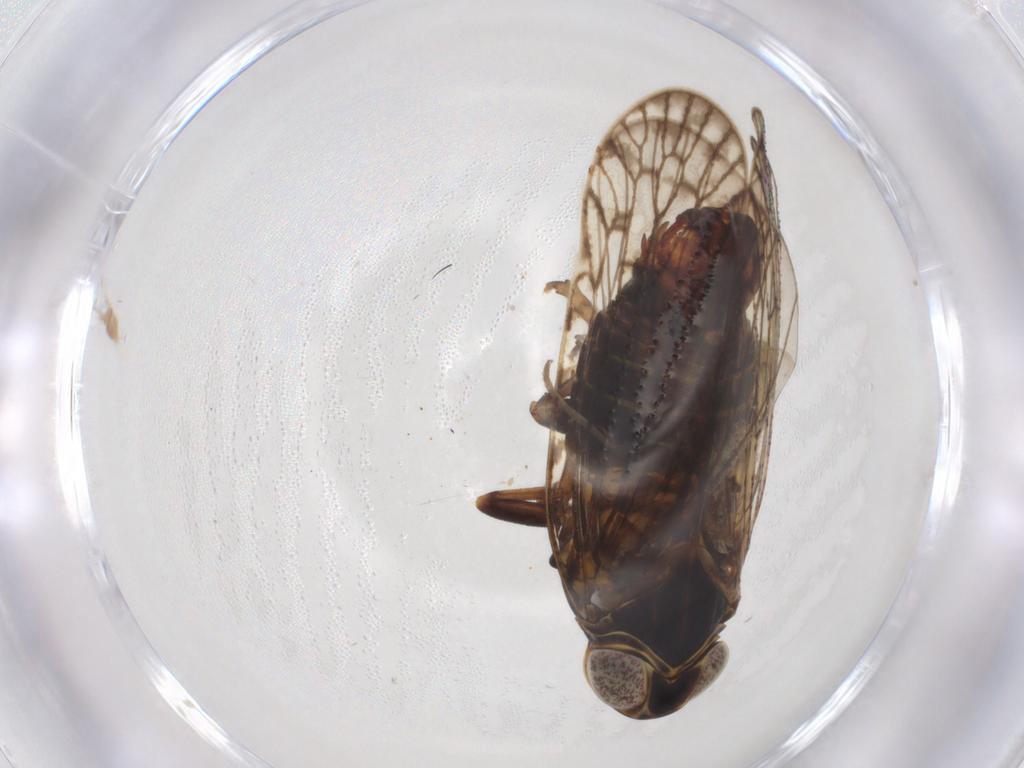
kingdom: Animalia
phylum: Arthropoda
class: Insecta
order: Hemiptera
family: Cixiidae
